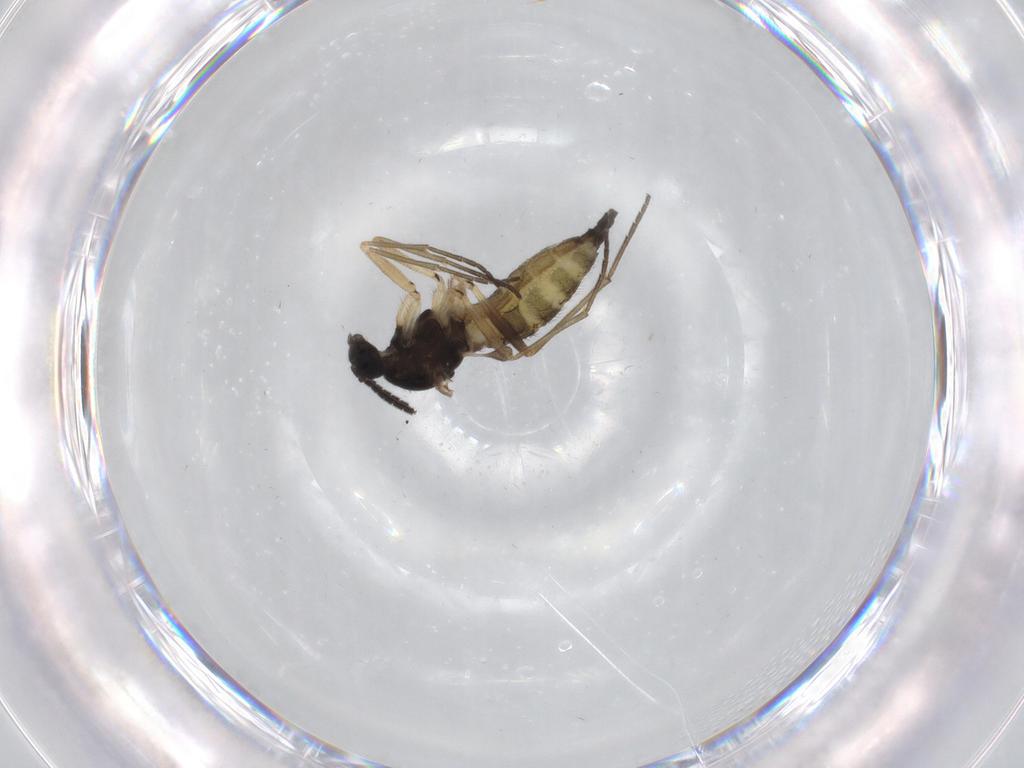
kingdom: Animalia
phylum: Arthropoda
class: Insecta
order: Diptera
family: Sciaridae
